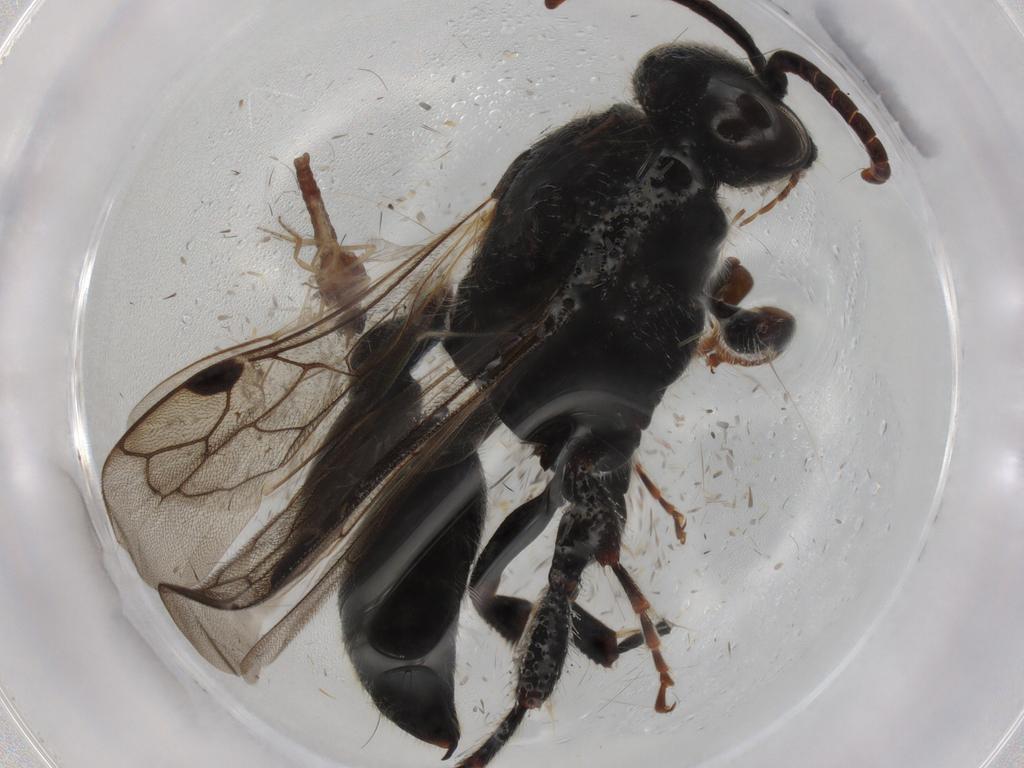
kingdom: Animalia
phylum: Arthropoda
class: Insecta
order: Diptera
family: Ceratopogonidae
